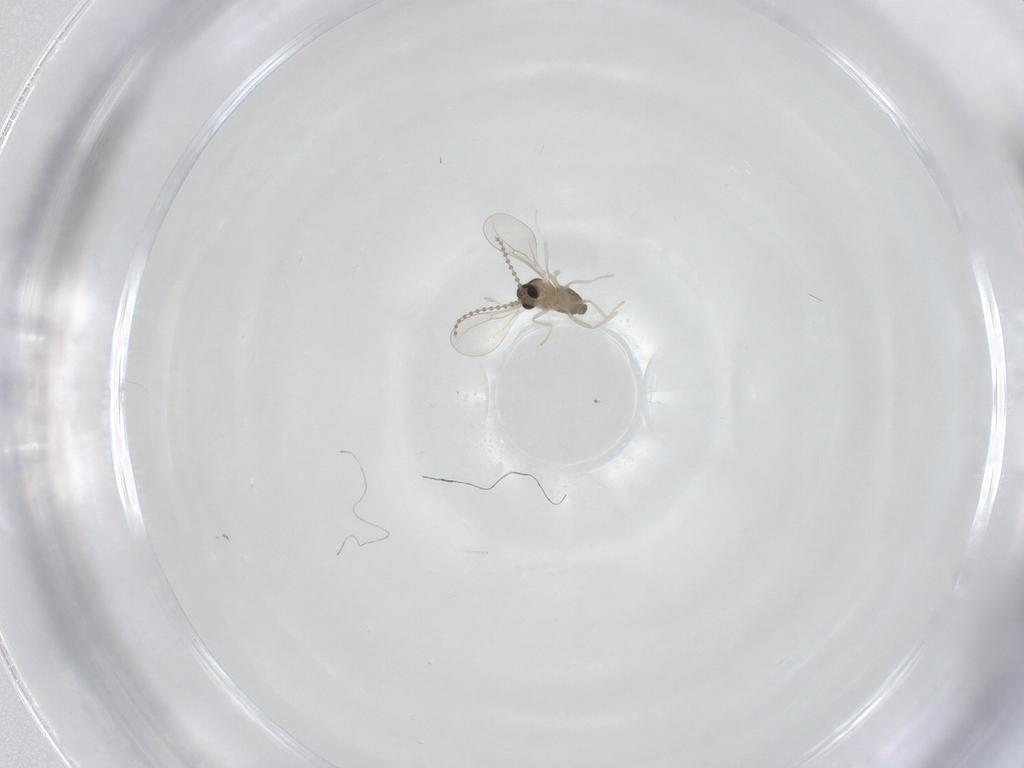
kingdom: Animalia
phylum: Arthropoda
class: Insecta
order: Diptera
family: Cecidomyiidae
